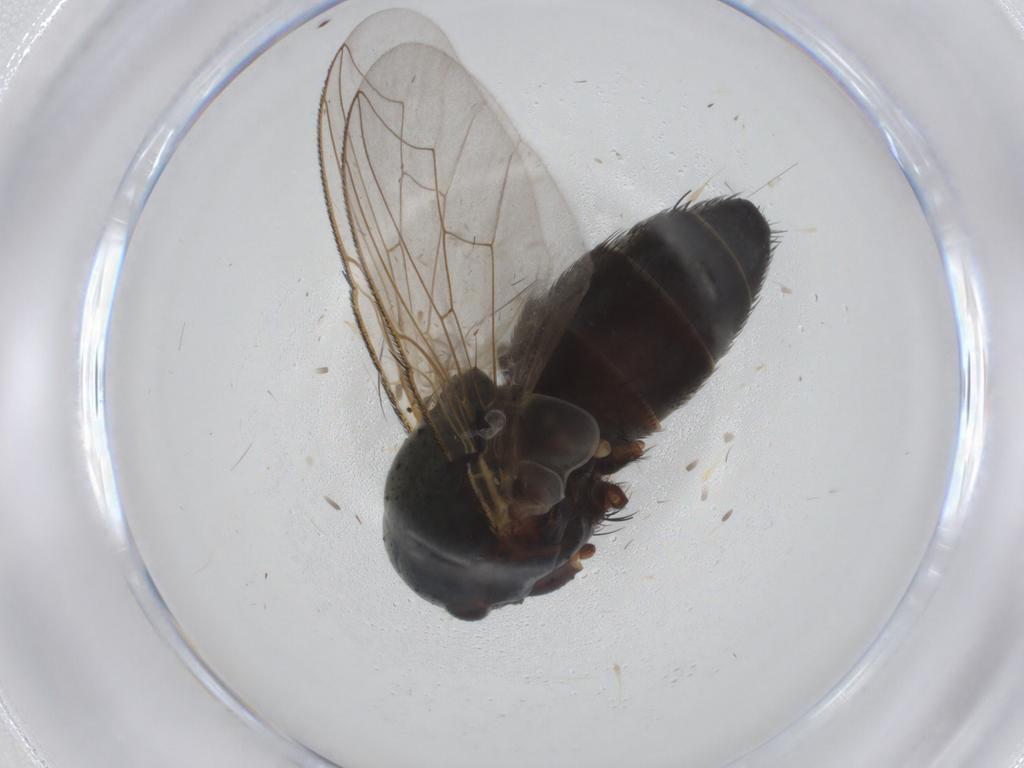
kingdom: Animalia
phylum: Arthropoda
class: Insecta
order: Diptera
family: Sarcophagidae
